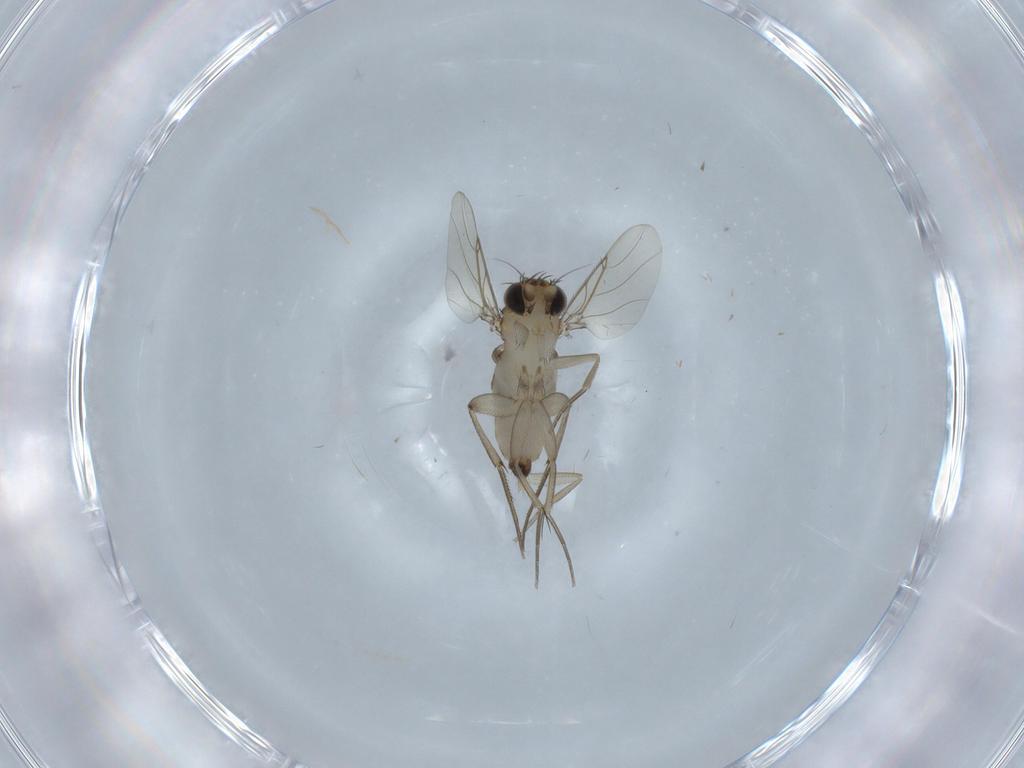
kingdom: Animalia
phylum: Arthropoda
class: Insecta
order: Diptera
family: Phoridae
